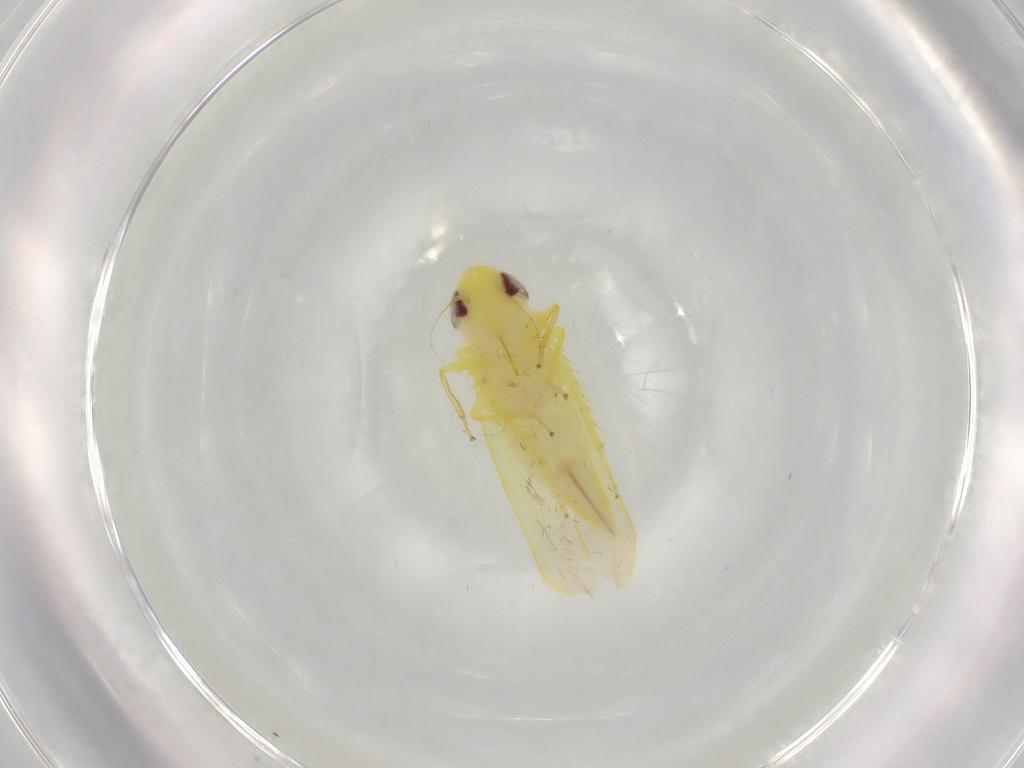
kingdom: Animalia
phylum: Arthropoda
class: Insecta
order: Hemiptera
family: Cicadellidae
